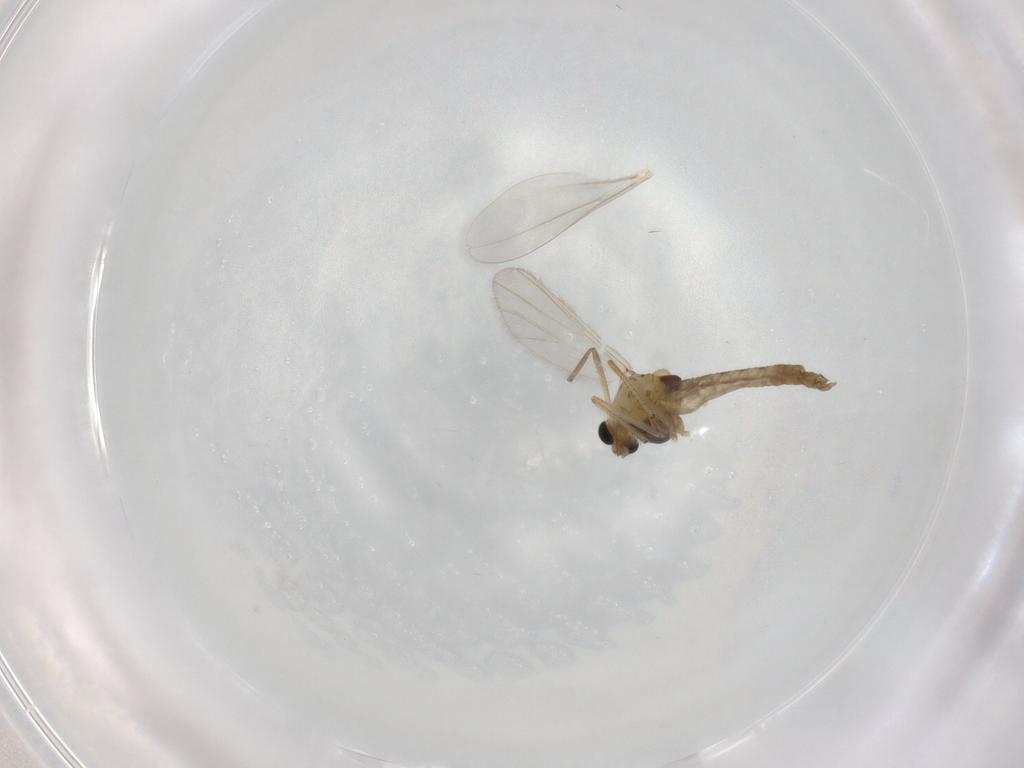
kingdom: Animalia
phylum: Arthropoda
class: Insecta
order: Diptera
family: Chironomidae
